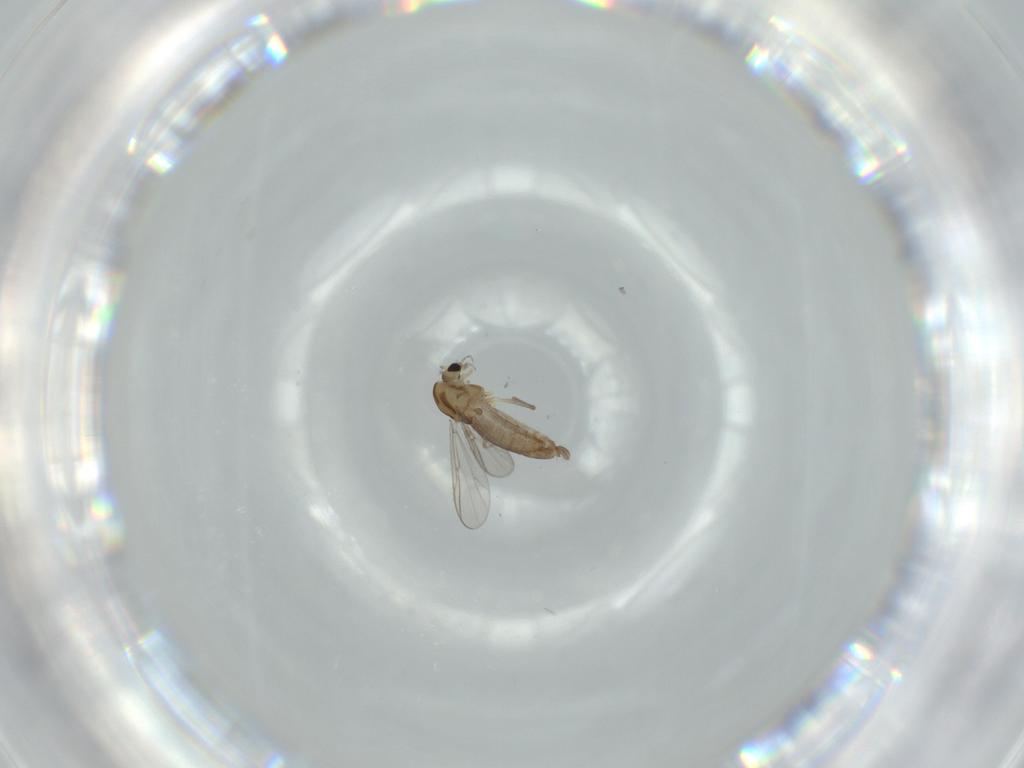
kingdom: Animalia
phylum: Arthropoda
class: Insecta
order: Diptera
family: Chironomidae
